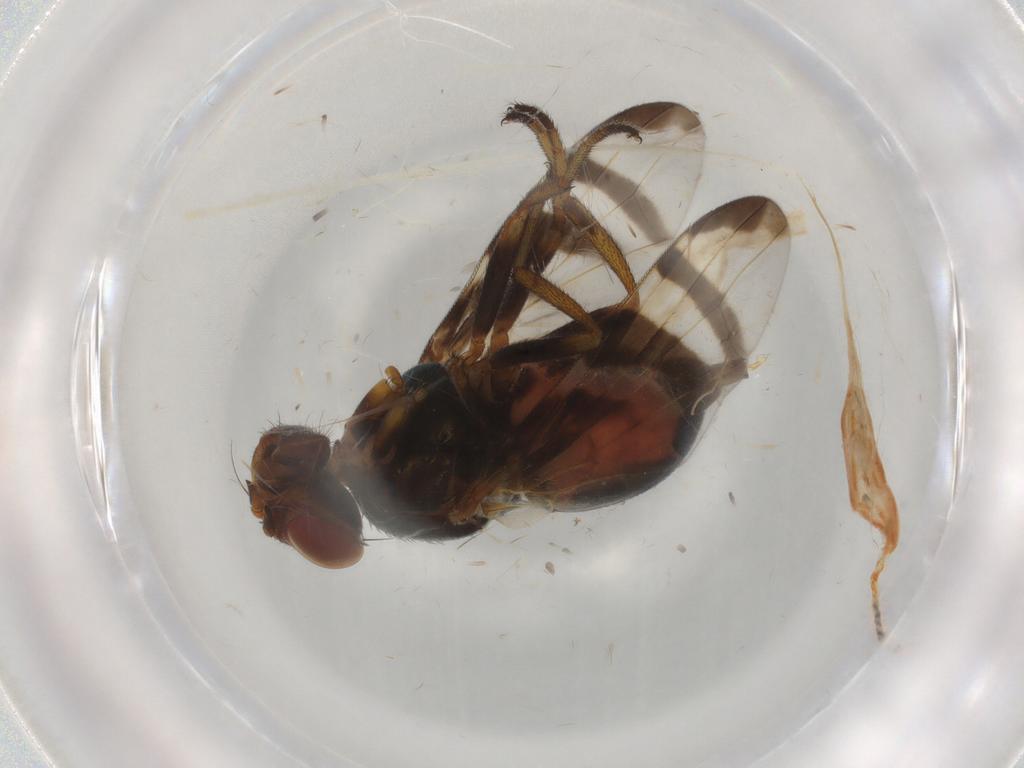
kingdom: Animalia
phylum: Arthropoda
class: Insecta
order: Diptera
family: Platystomatidae
